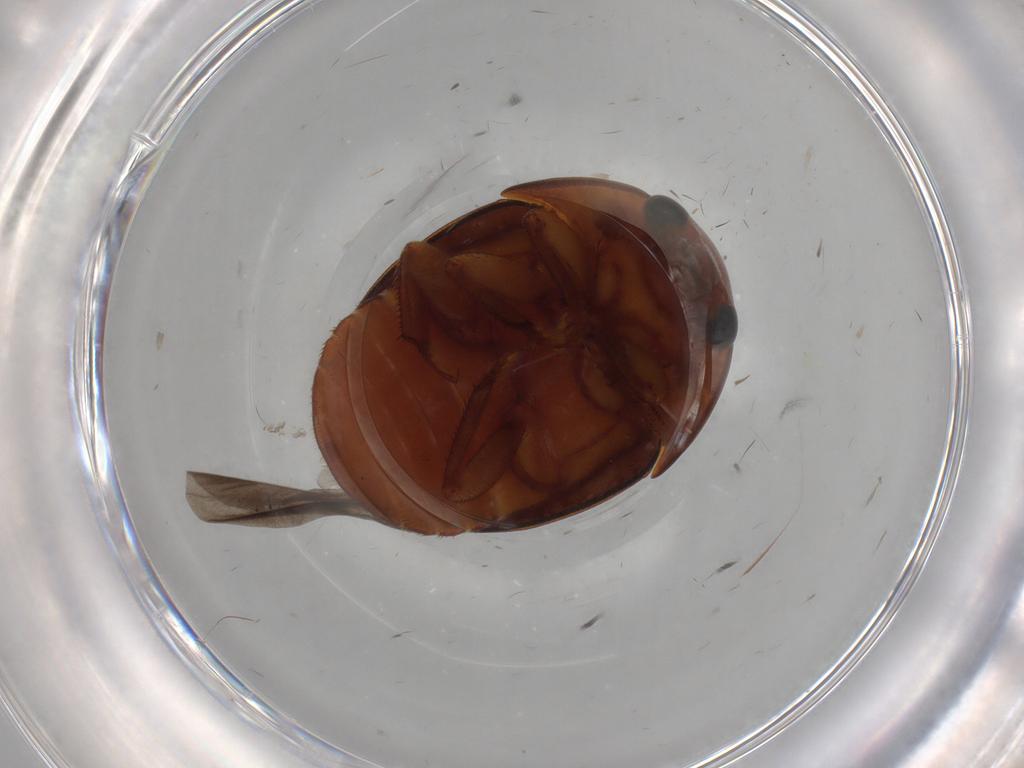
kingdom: Animalia
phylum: Arthropoda
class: Insecta
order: Coleoptera
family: Nitidulidae
